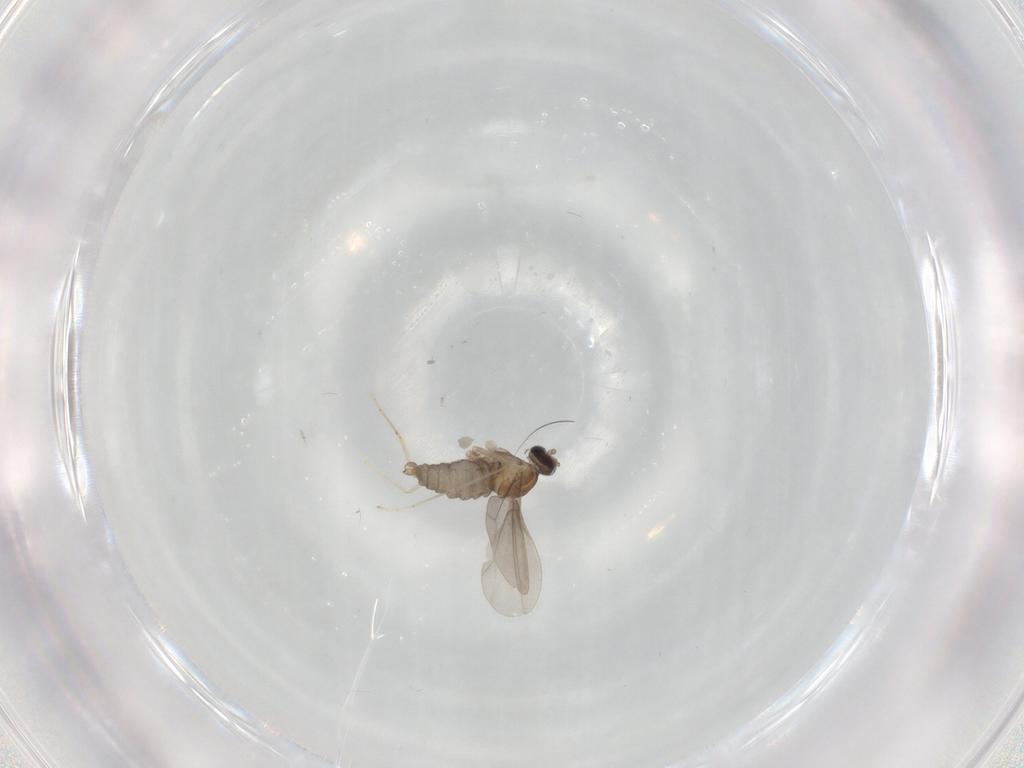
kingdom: Animalia
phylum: Arthropoda
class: Insecta
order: Diptera
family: Cecidomyiidae
